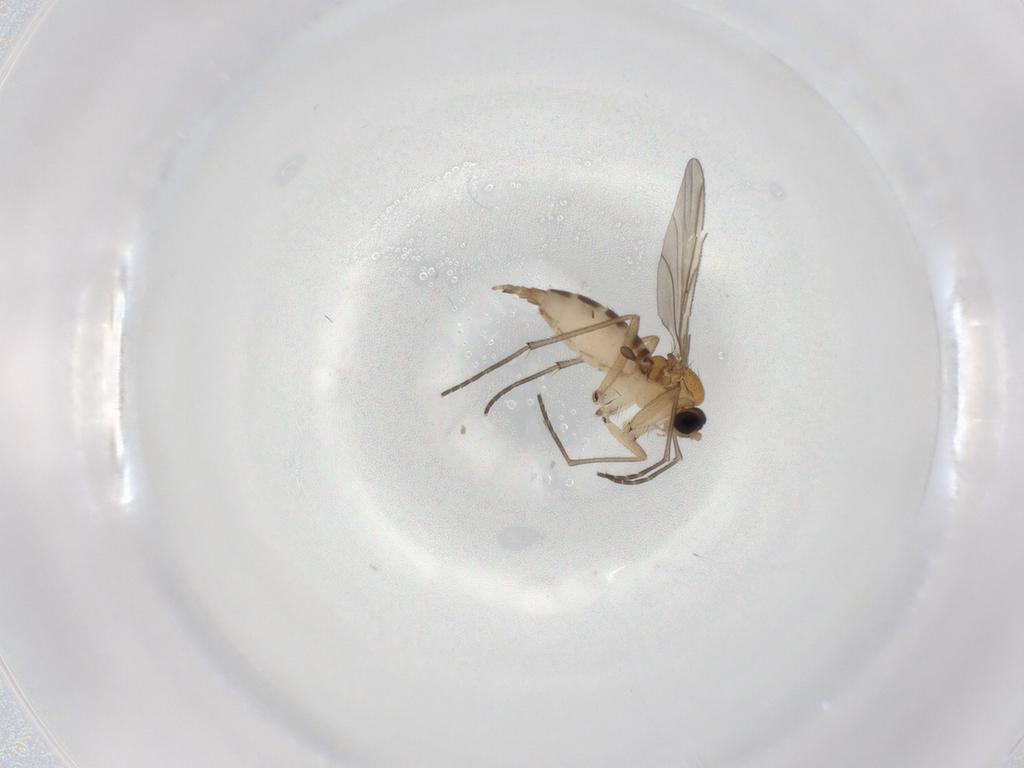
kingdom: Animalia
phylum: Arthropoda
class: Insecta
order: Diptera
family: Sciaridae
